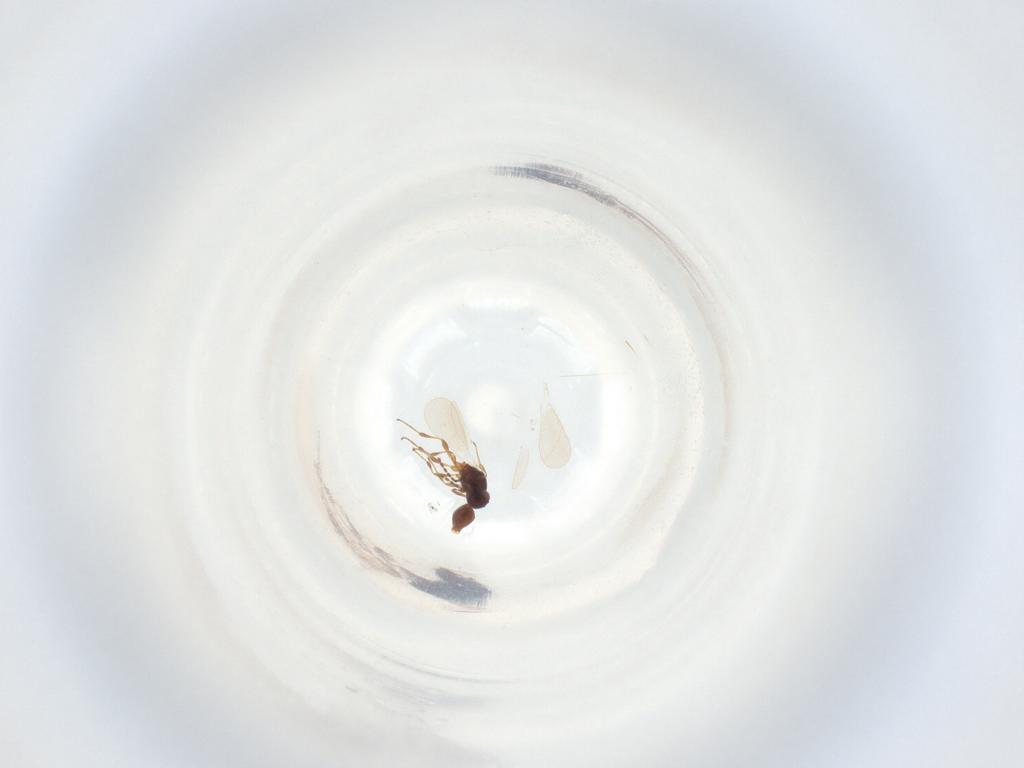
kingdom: Animalia
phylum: Arthropoda
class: Insecta
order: Hymenoptera
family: Platygastridae
